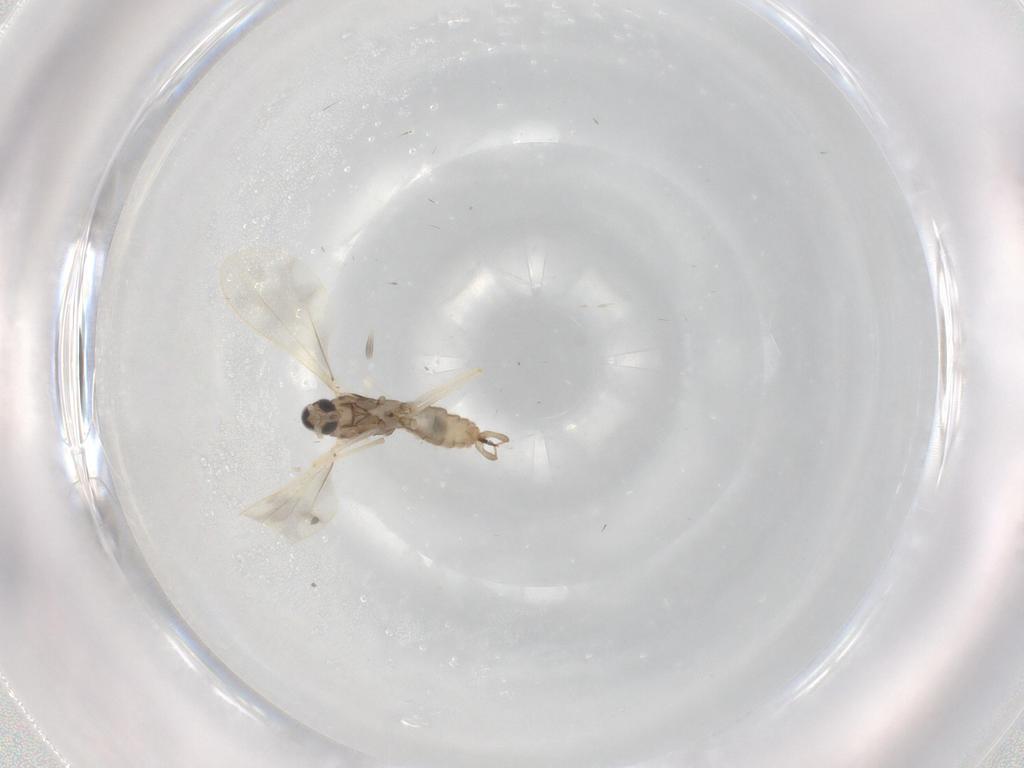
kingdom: Animalia
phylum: Arthropoda
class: Insecta
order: Diptera
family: Cecidomyiidae
